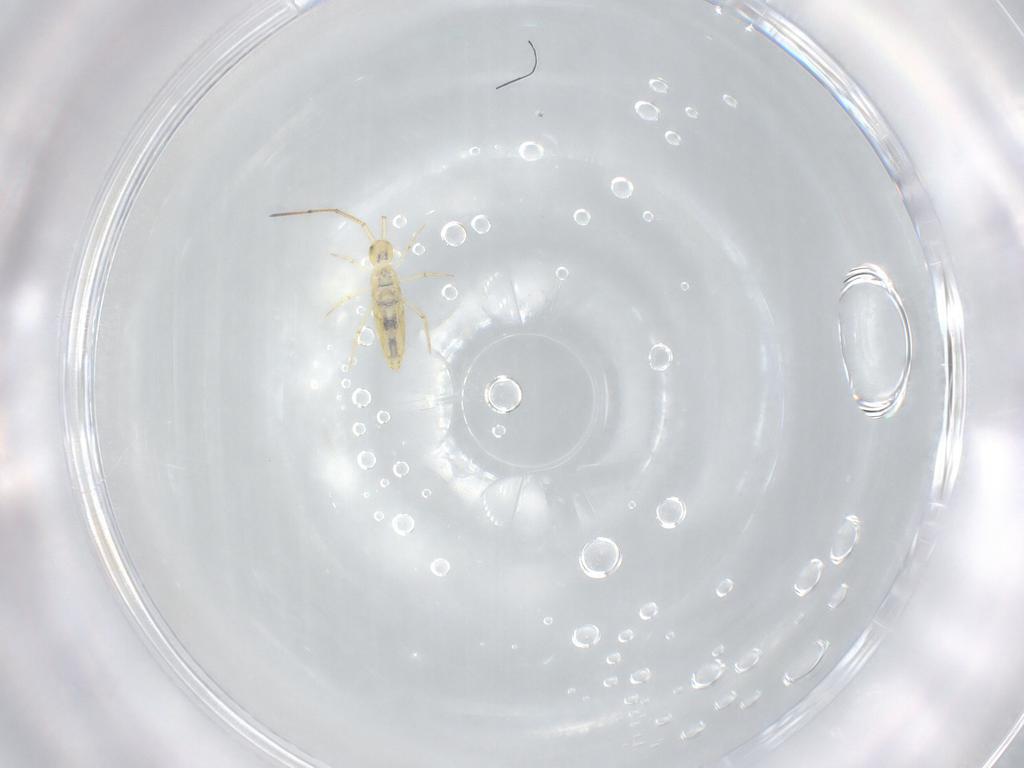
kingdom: Animalia
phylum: Arthropoda
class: Collembola
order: Entomobryomorpha
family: Paronellidae
